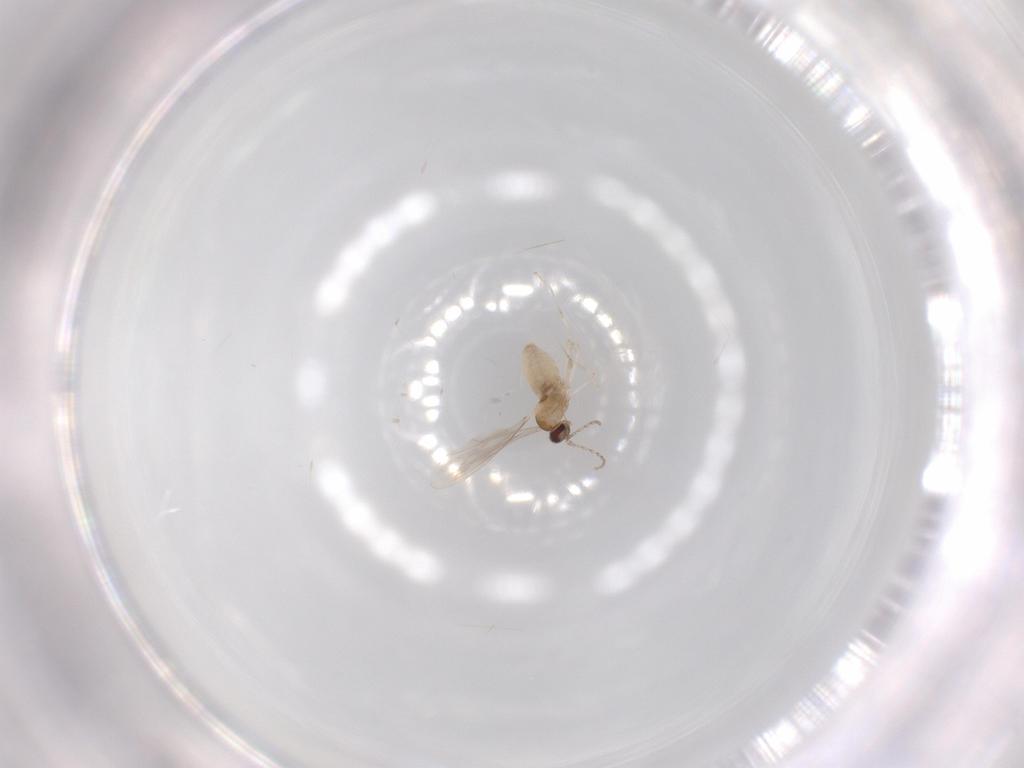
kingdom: Animalia
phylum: Arthropoda
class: Insecta
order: Diptera
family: Cecidomyiidae
